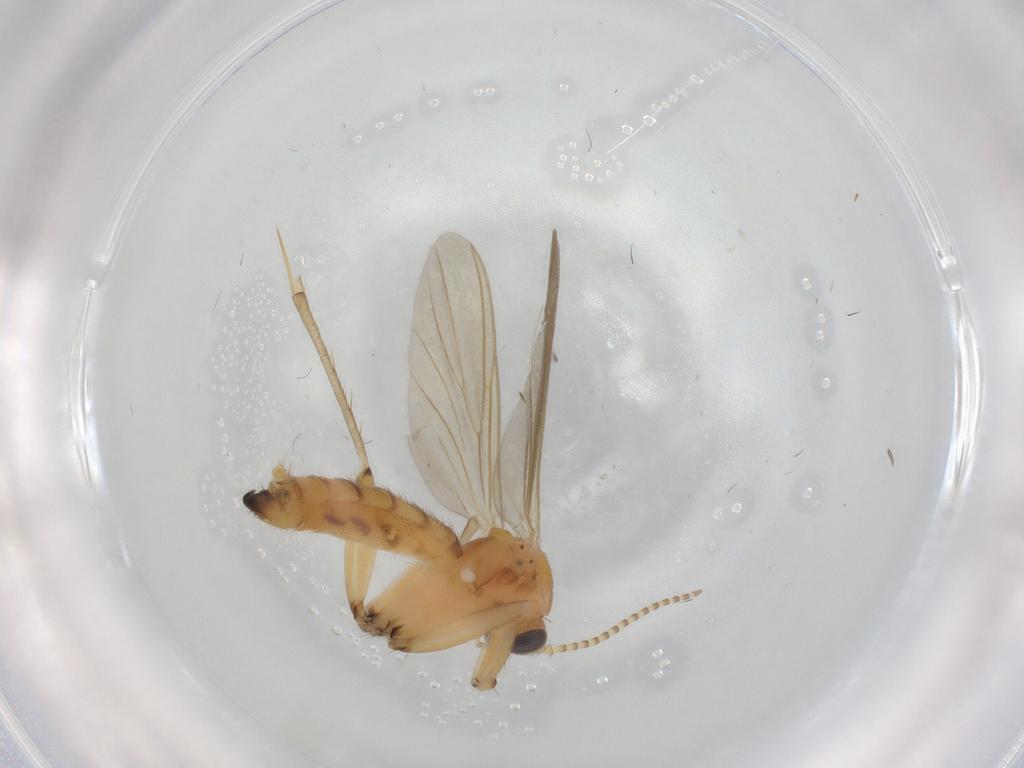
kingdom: Animalia
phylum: Arthropoda
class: Insecta
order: Diptera
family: Mycetophilidae
